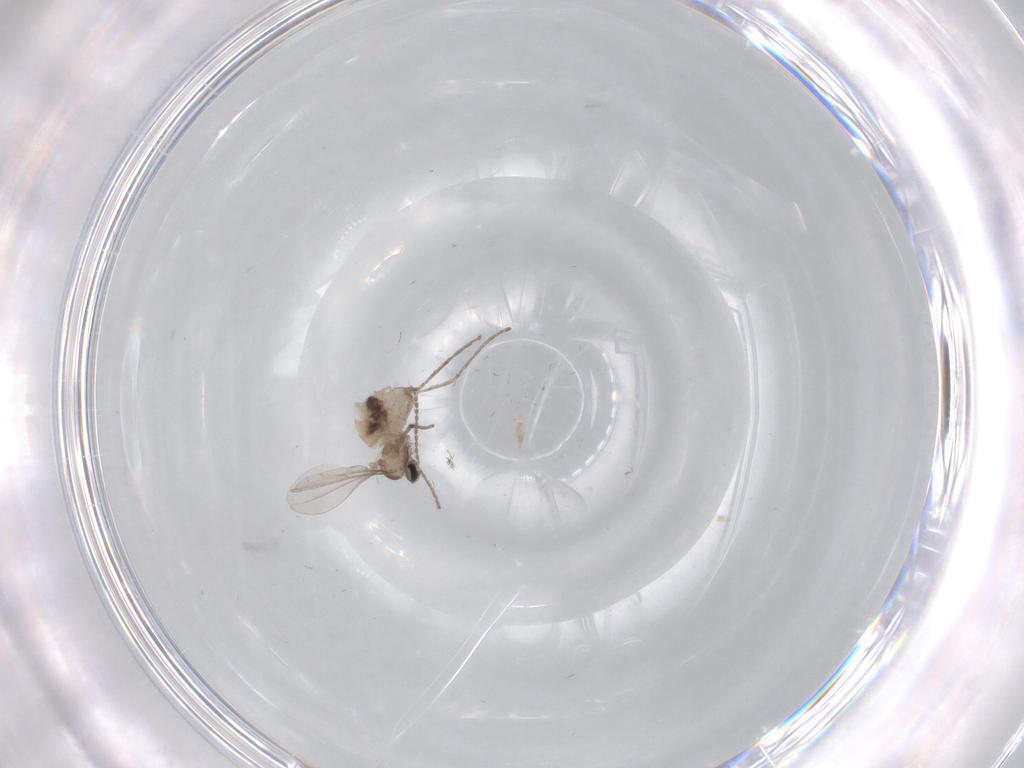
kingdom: Animalia
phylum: Arthropoda
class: Insecta
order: Diptera
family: Cecidomyiidae
